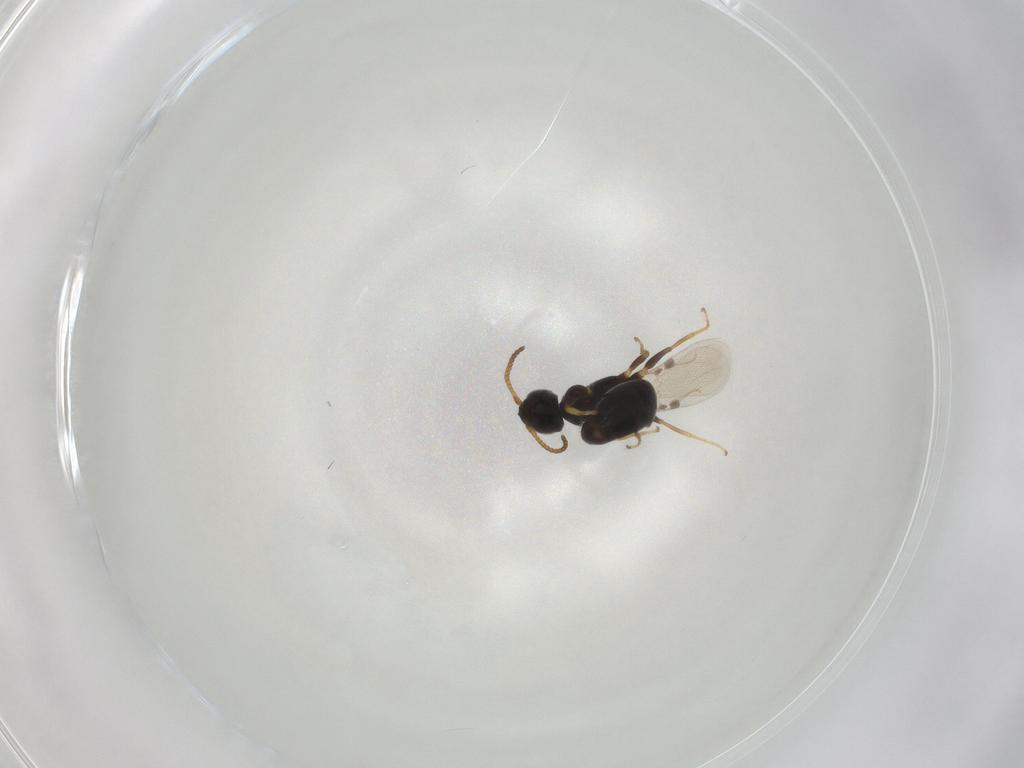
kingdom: Animalia
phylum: Arthropoda
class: Insecta
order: Hymenoptera
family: Bethylidae
